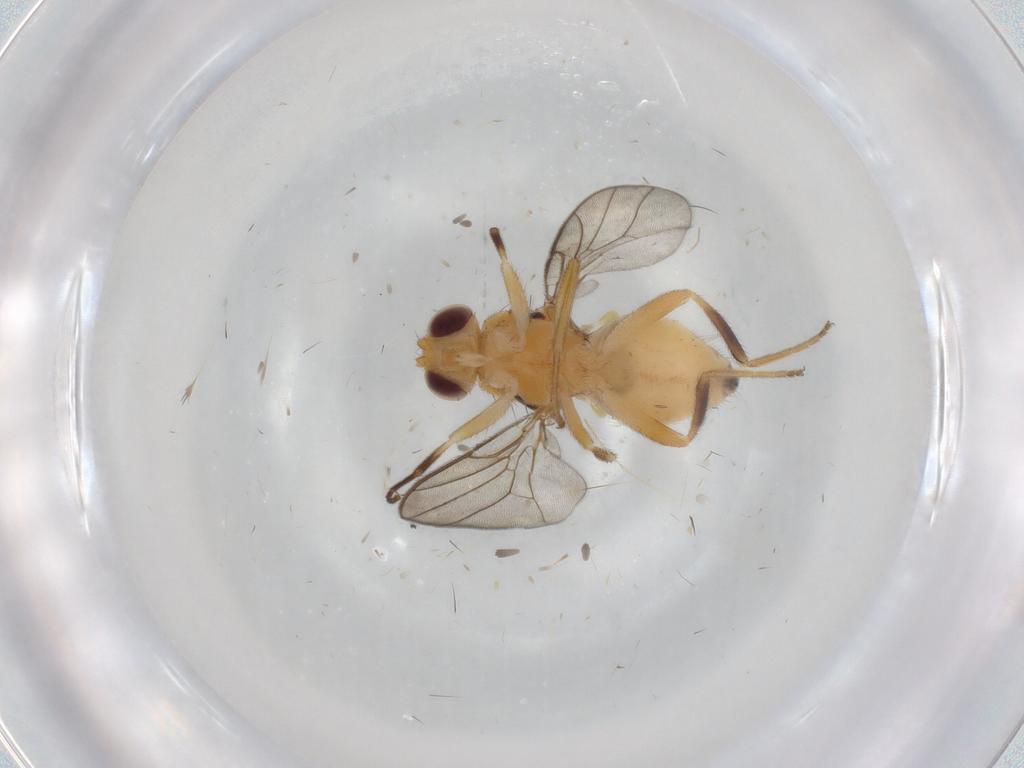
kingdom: Animalia
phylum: Arthropoda
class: Insecta
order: Diptera
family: Chloropidae
